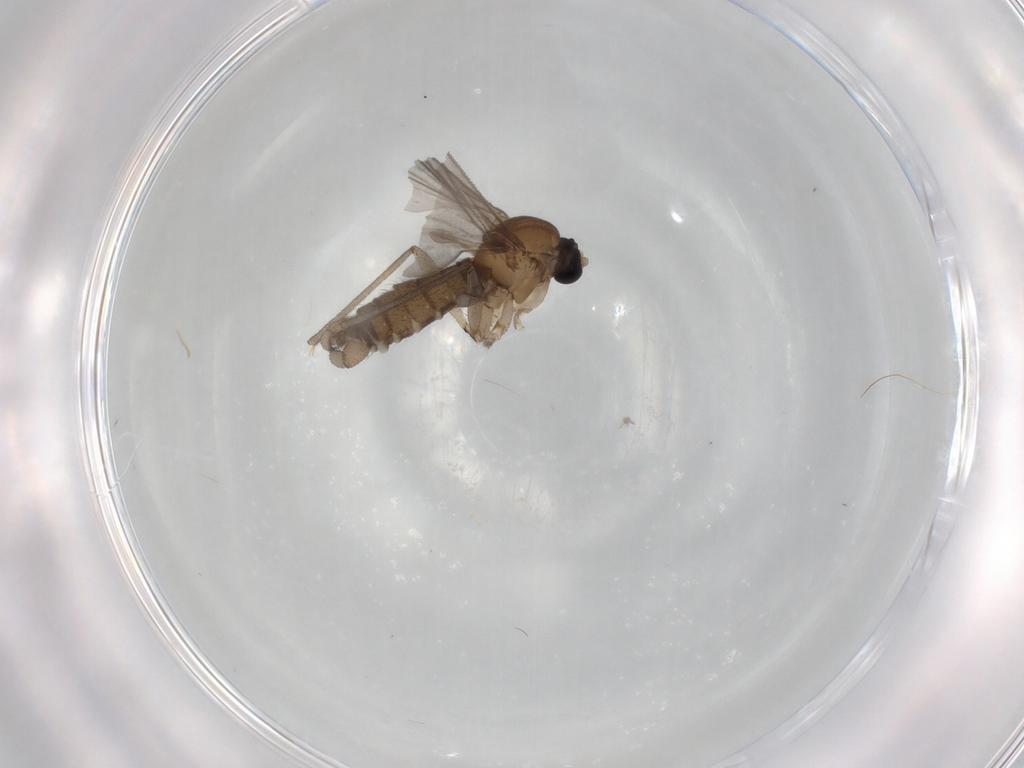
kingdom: Animalia
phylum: Arthropoda
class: Insecta
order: Diptera
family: Sciaridae
